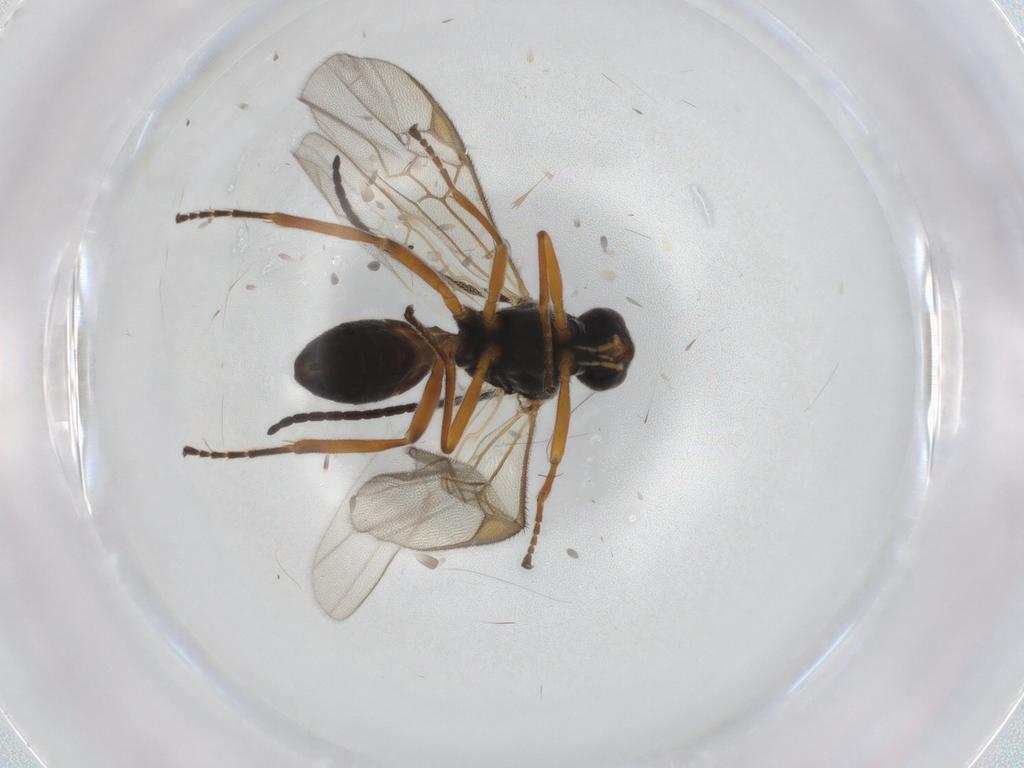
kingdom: Animalia
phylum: Arthropoda
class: Insecta
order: Hymenoptera
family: Braconidae
